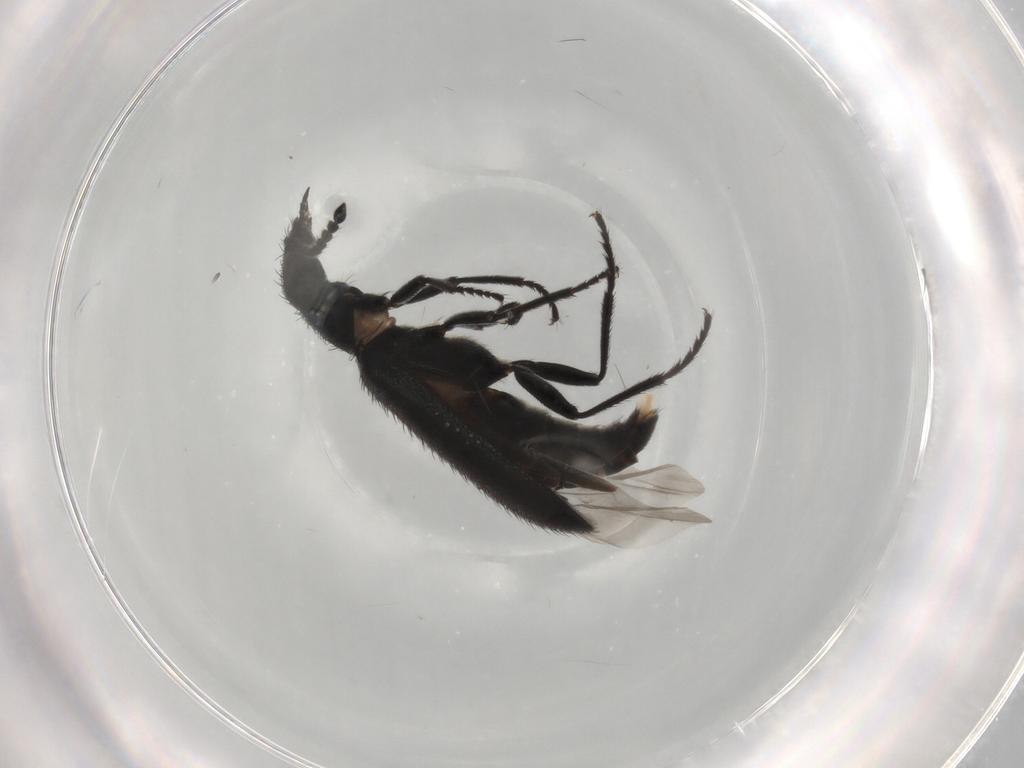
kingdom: Animalia
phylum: Arthropoda
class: Insecta
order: Coleoptera
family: Melyridae
